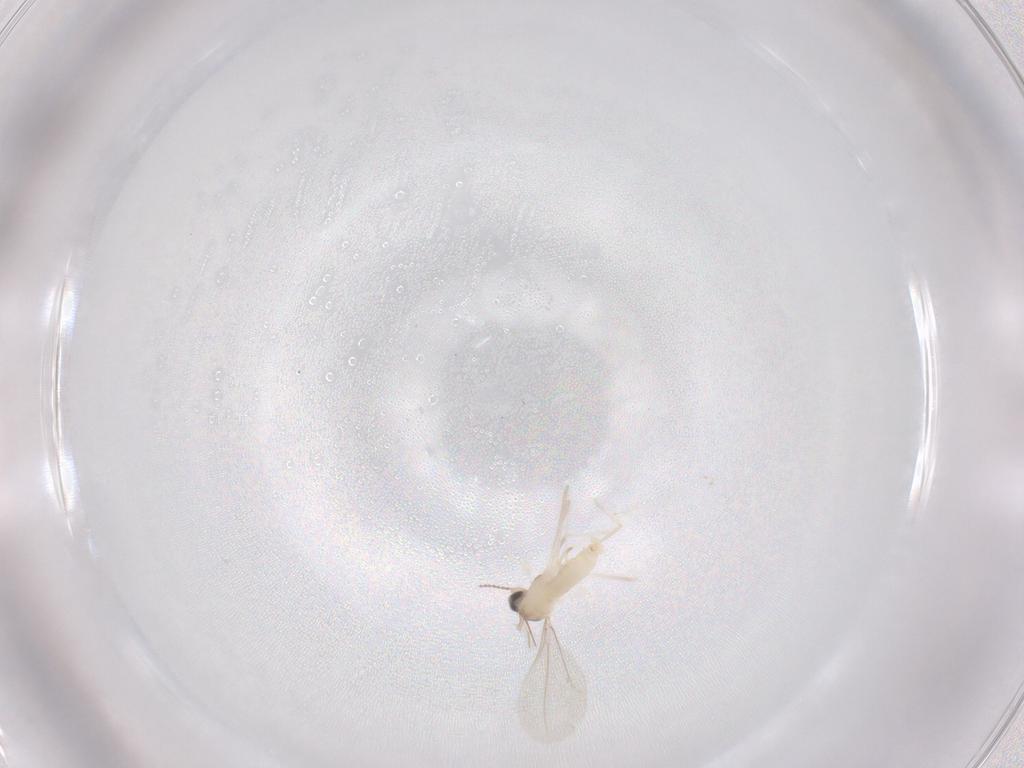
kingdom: Animalia
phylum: Arthropoda
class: Insecta
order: Diptera
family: Cecidomyiidae
